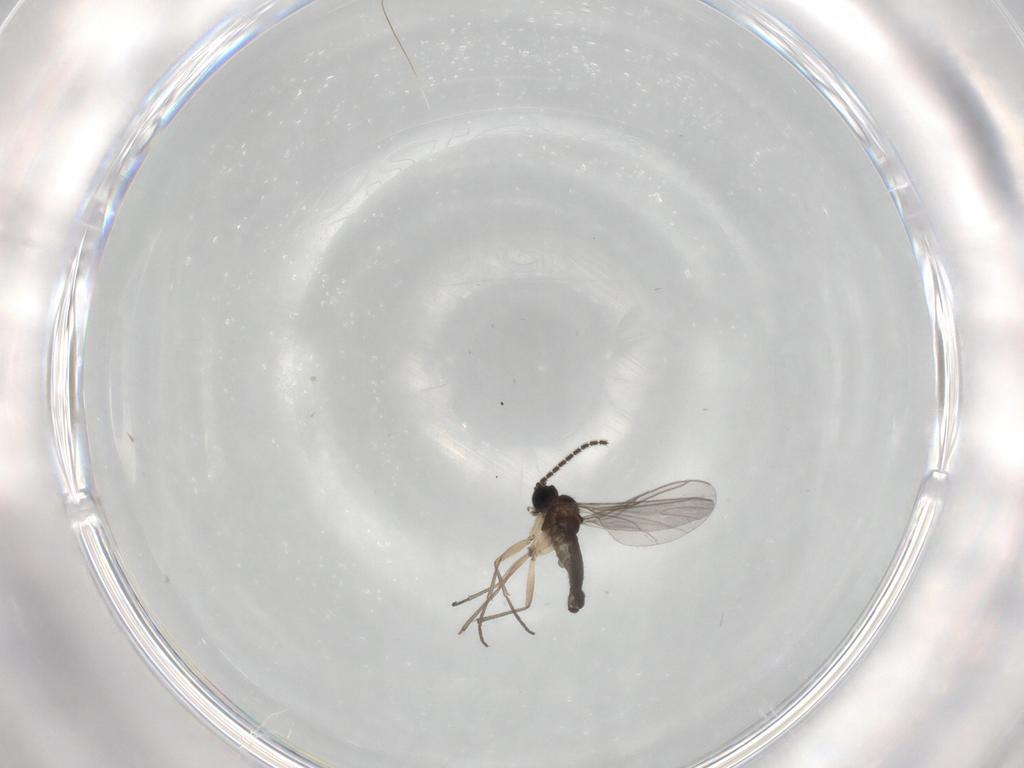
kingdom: Animalia
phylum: Arthropoda
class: Insecta
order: Diptera
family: Sciaridae
